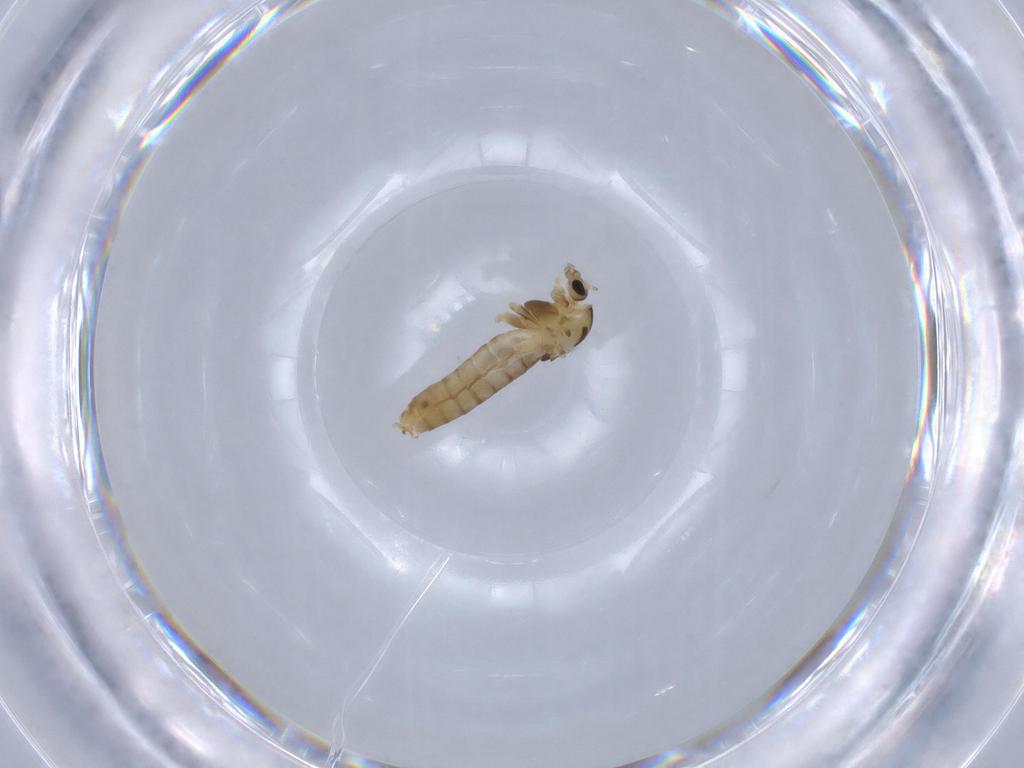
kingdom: Animalia
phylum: Arthropoda
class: Insecta
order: Diptera
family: Chironomidae
